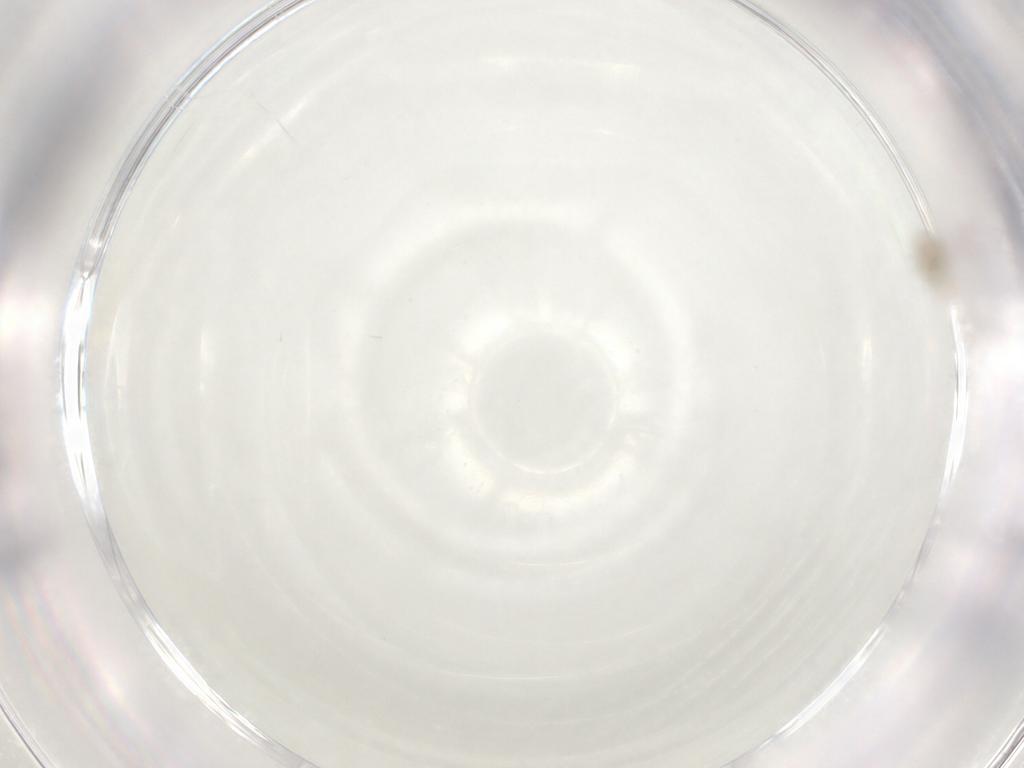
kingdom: Animalia
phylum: Arthropoda
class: Insecta
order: Diptera
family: Cecidomyiidae
